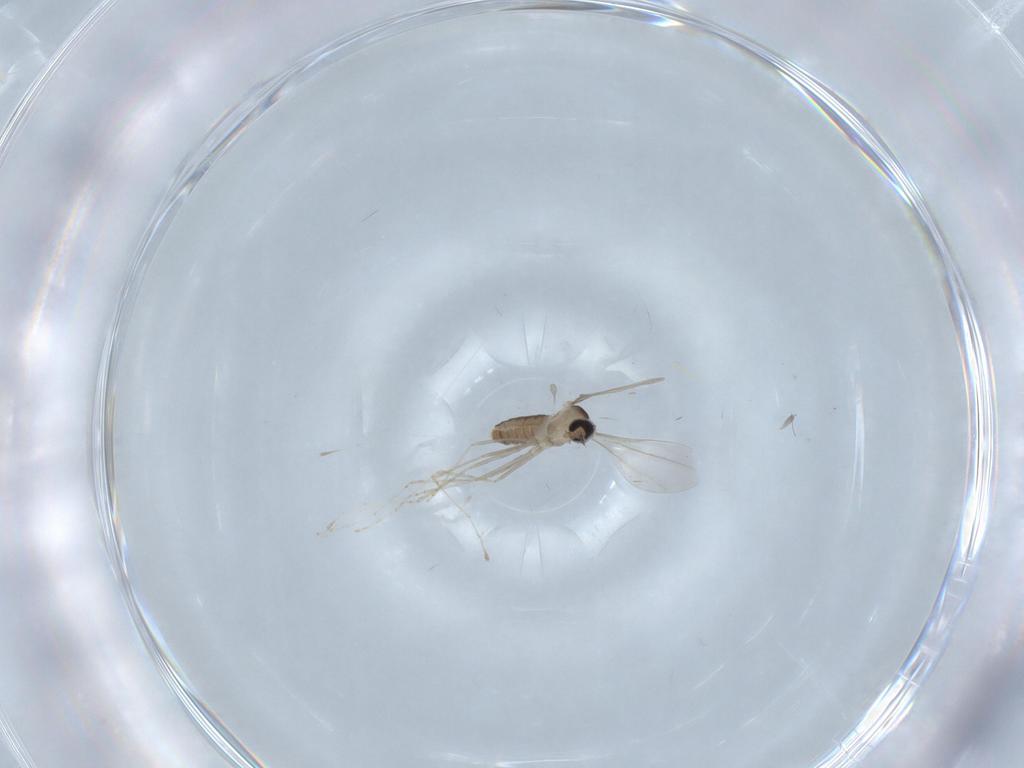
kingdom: Animalia
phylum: Arthropoda
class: Insecta
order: Diptera
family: Cecidomyiidae
